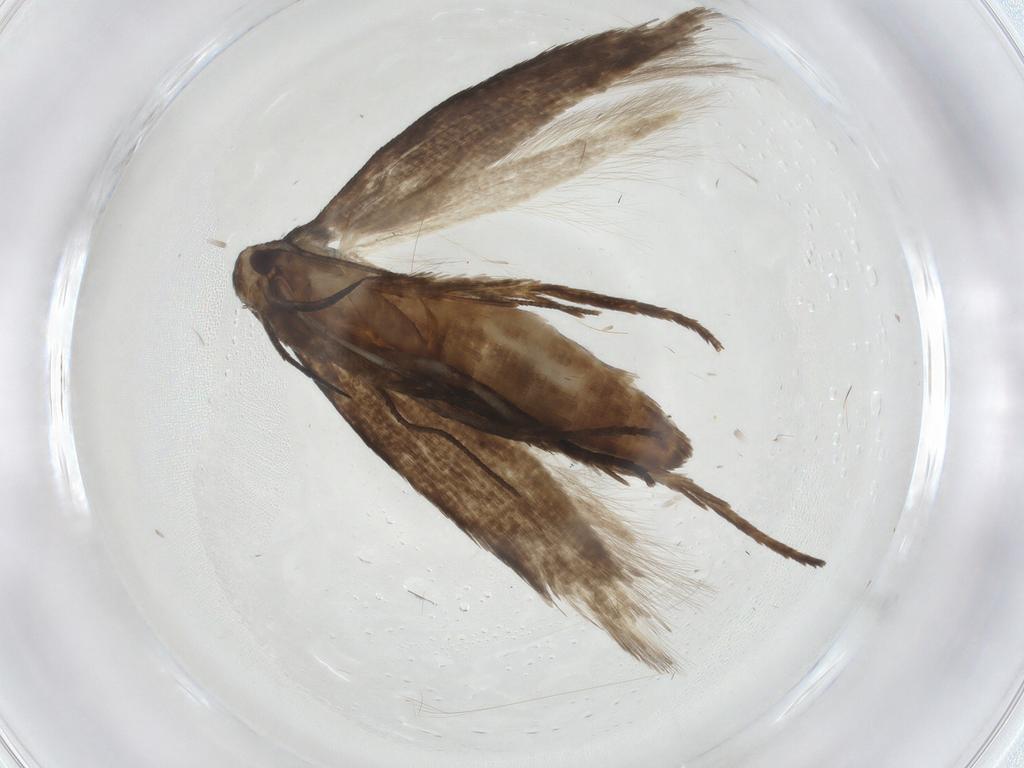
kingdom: Animalia
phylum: Arthropoda
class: Insecta
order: Lepidoptera
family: Cosmopterigidae
